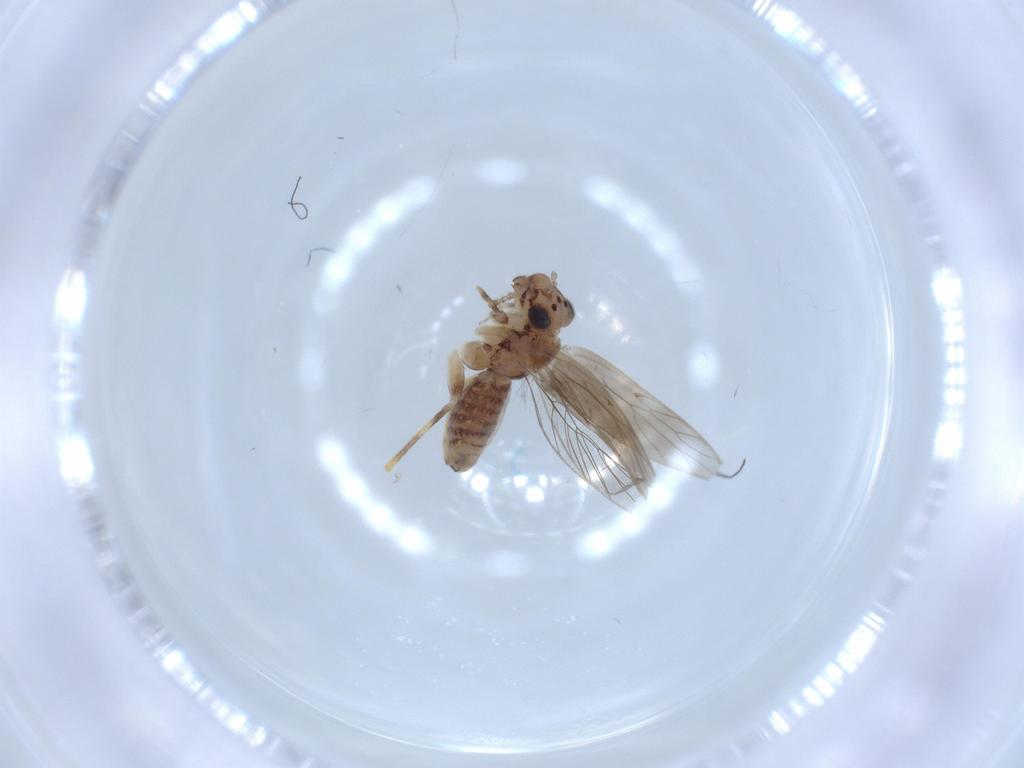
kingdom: Animalia
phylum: Arthropoda
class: Insecta
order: Psocodea
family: Lepidopsocidae
